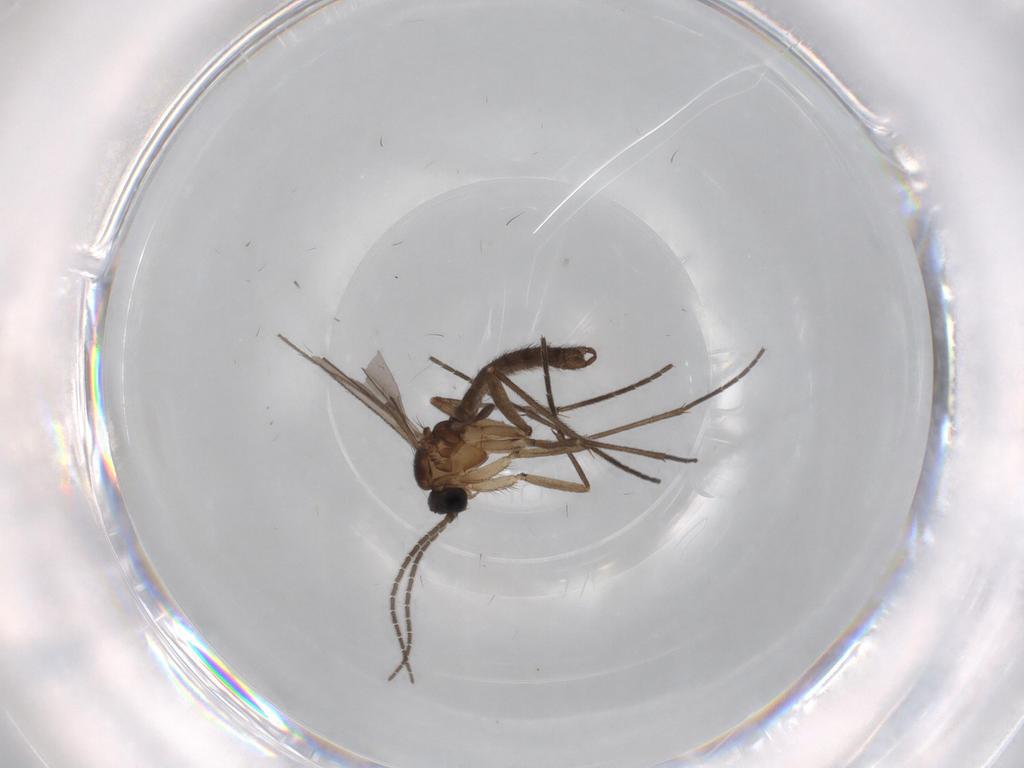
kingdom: Animalia
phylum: Arthropoda
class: Insecta
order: Diptera
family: Sciaridae
